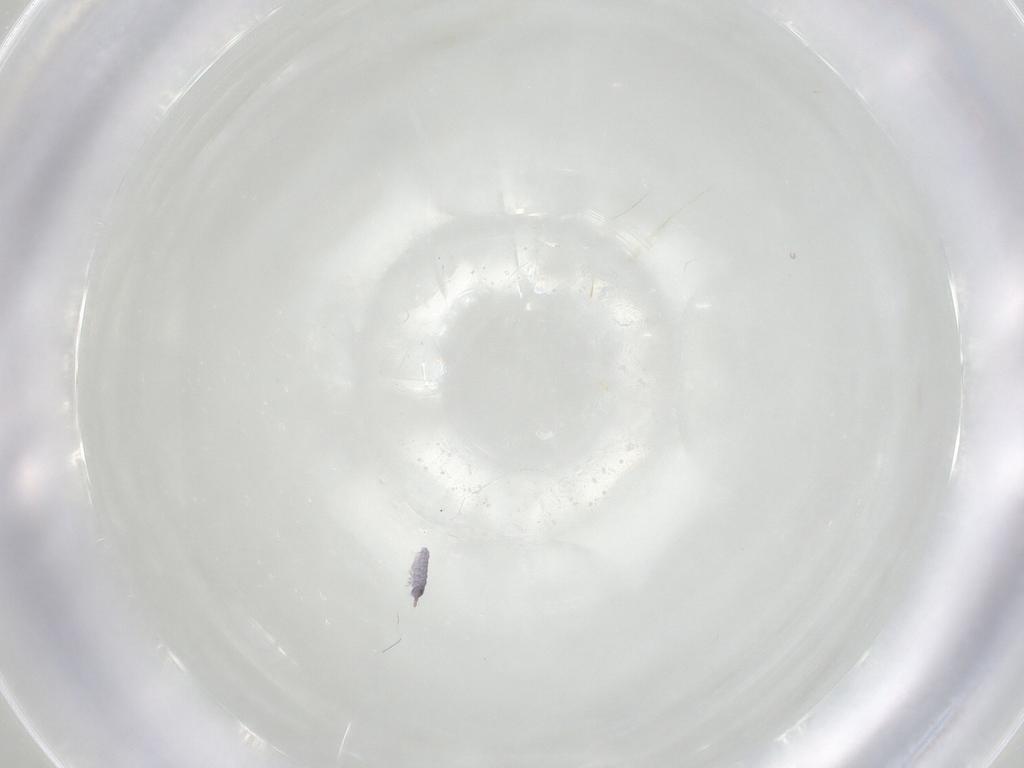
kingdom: Animalia
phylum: Arthropoda
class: Collembola
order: Poduromorpha
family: Neanuridae
